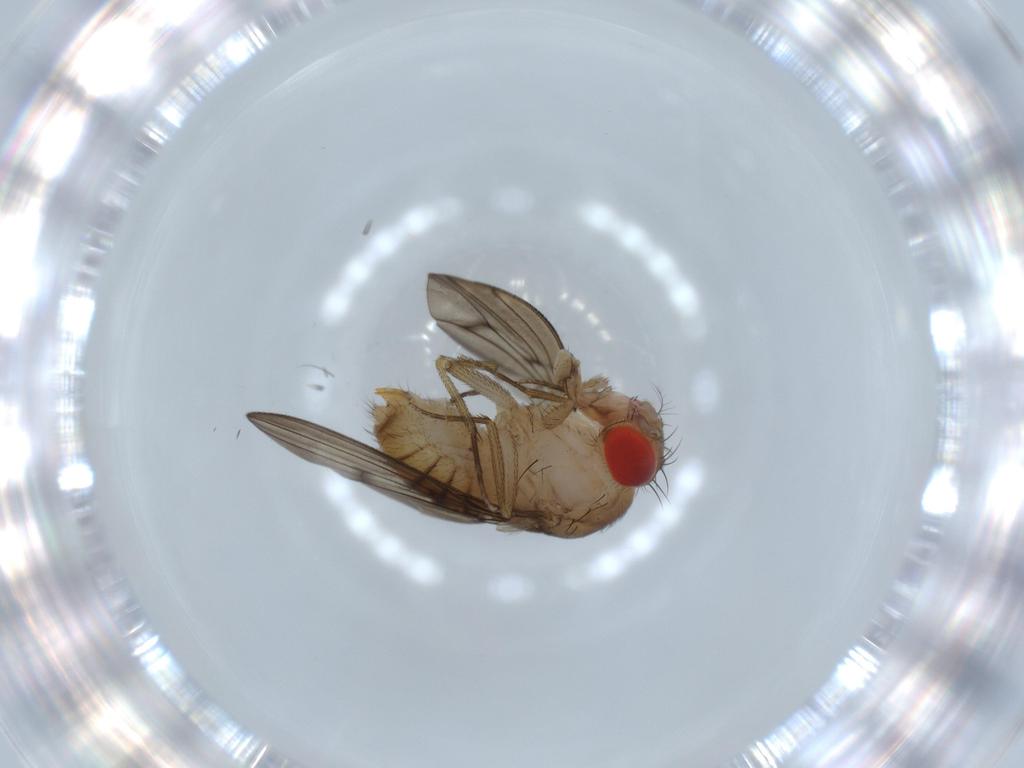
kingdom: Animalia
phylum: Arthropoda
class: Insecta
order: Diptera
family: Drosophilidae
